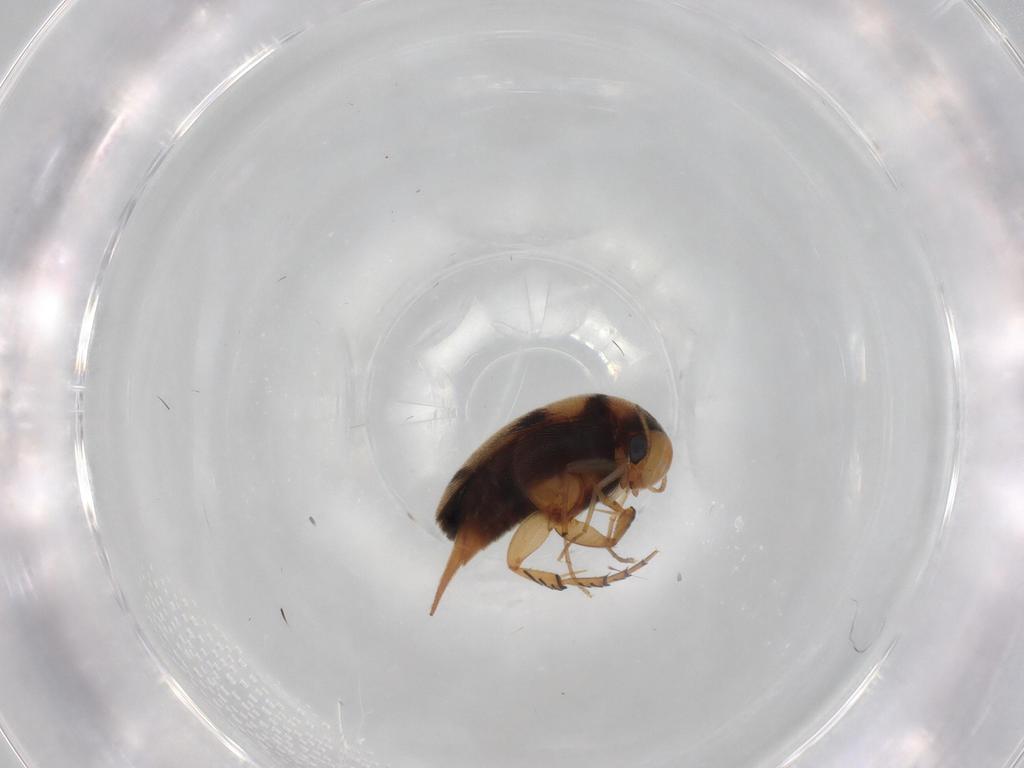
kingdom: Animalia
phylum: Arthropoda
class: Insecta
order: Coleoptera
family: Mordellidae
